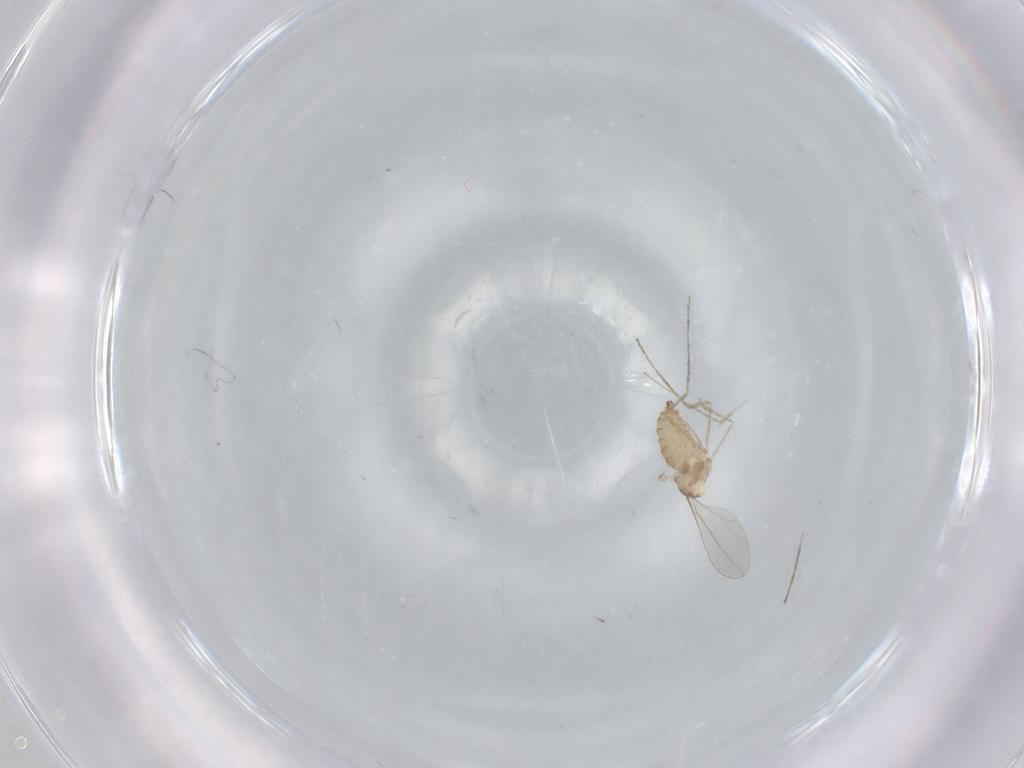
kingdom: Animalia
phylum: Arthropoda
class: Insecta
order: Diptera
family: Cecidomyiidae
